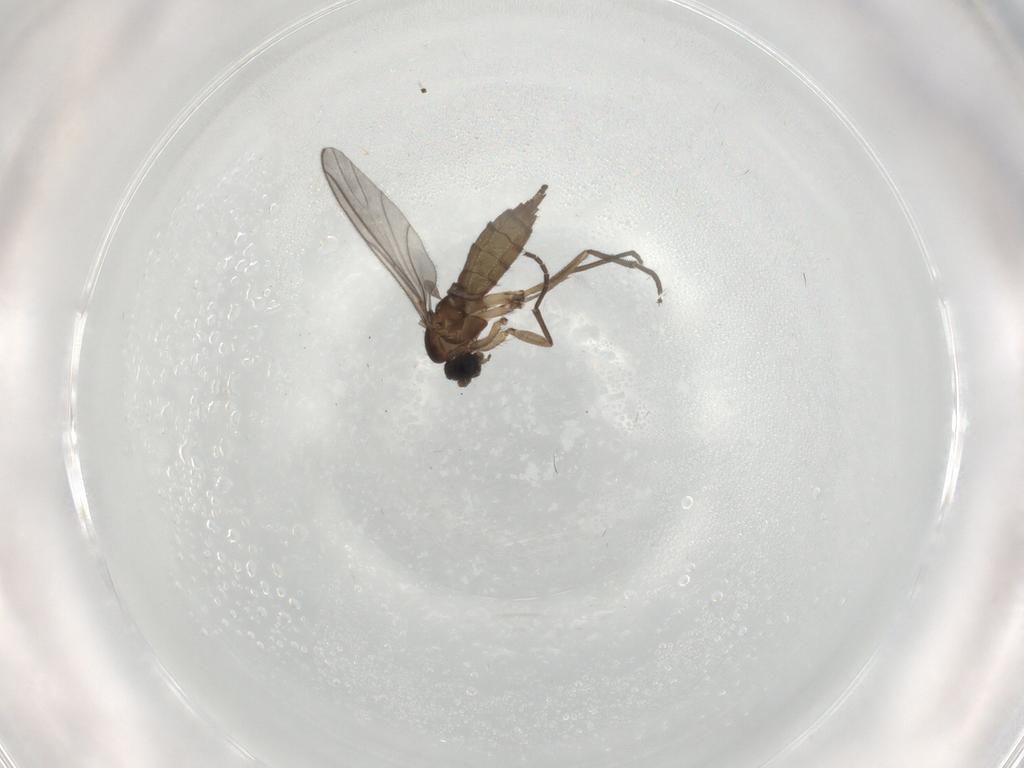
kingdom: Animalia
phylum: Arthropoda
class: Insecta
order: Diptera
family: Sciaridae
